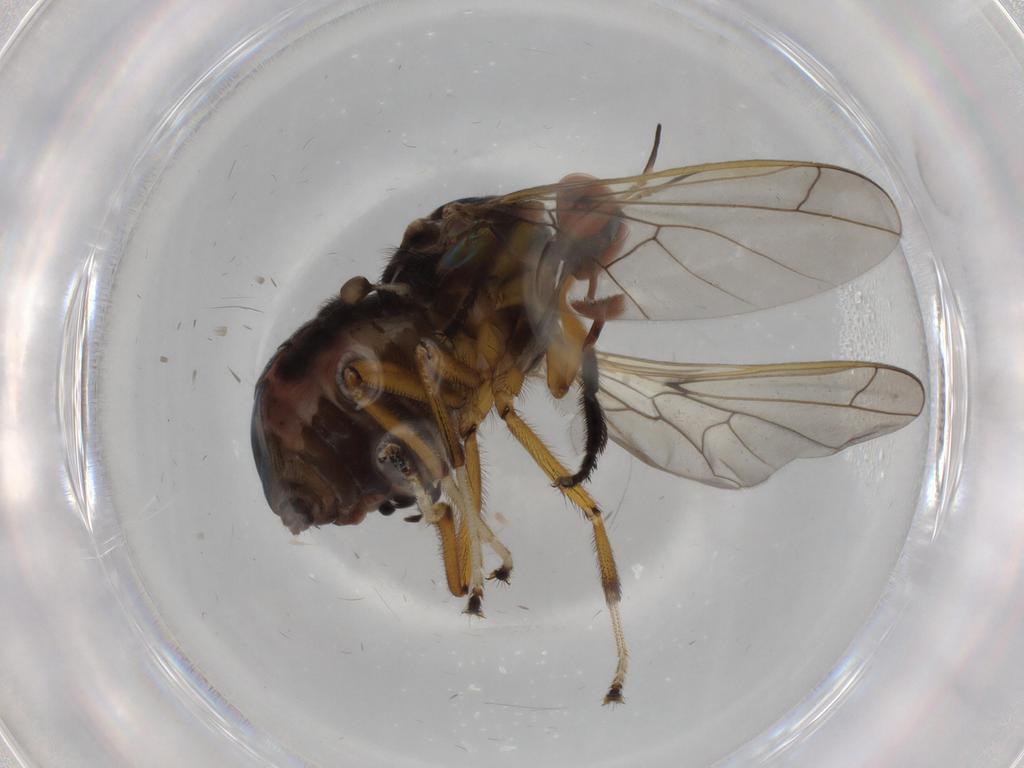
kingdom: Animalia
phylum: Arthropoda
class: Insecta
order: Diptera
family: Empididae
